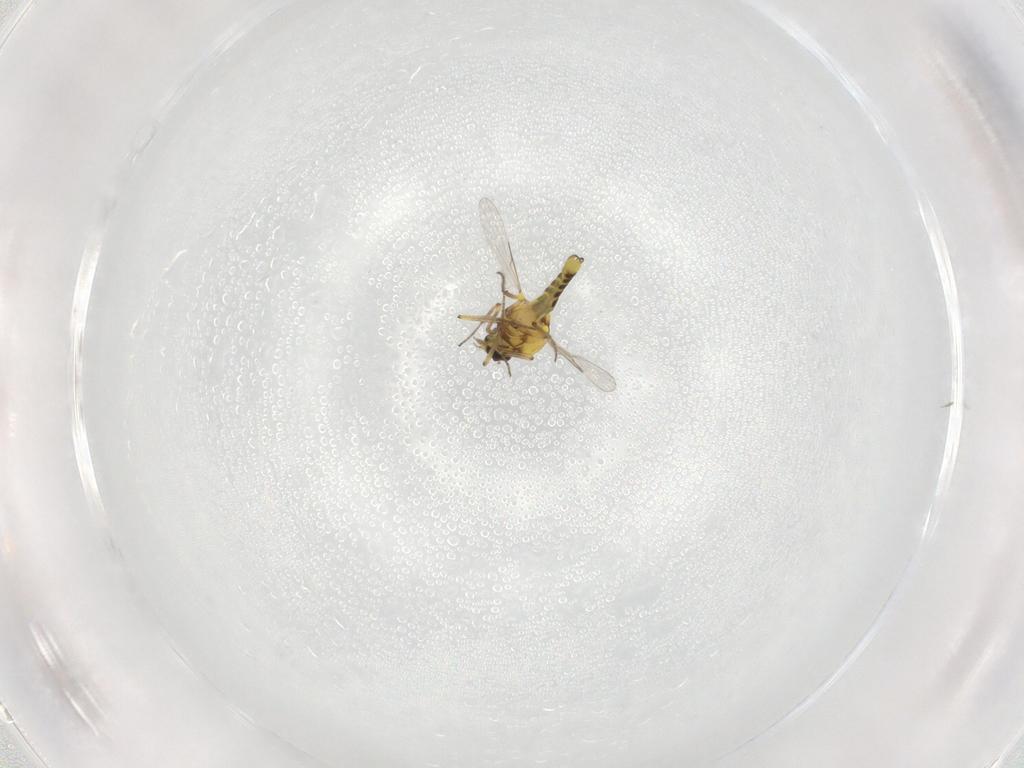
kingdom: Animalia
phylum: Arthropoda
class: Insecta
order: Diptera
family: Ceratopogonidae
